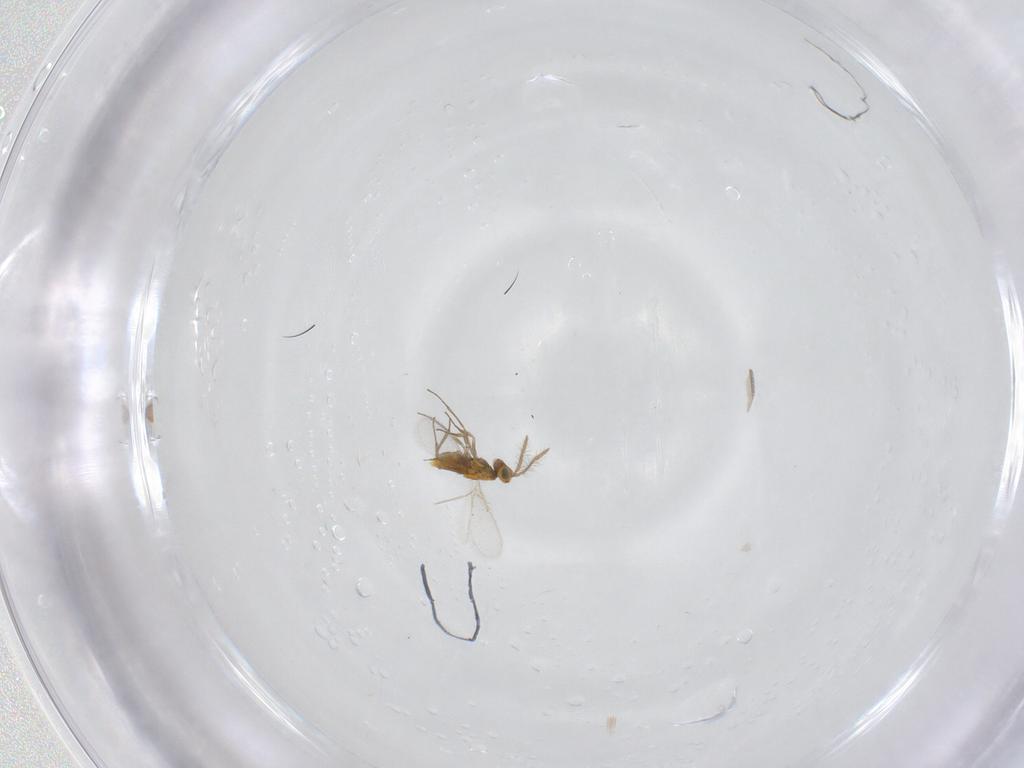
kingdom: Animalia
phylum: Arthropoda
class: Insecta
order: Hymenoptera
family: Aphelinidae
